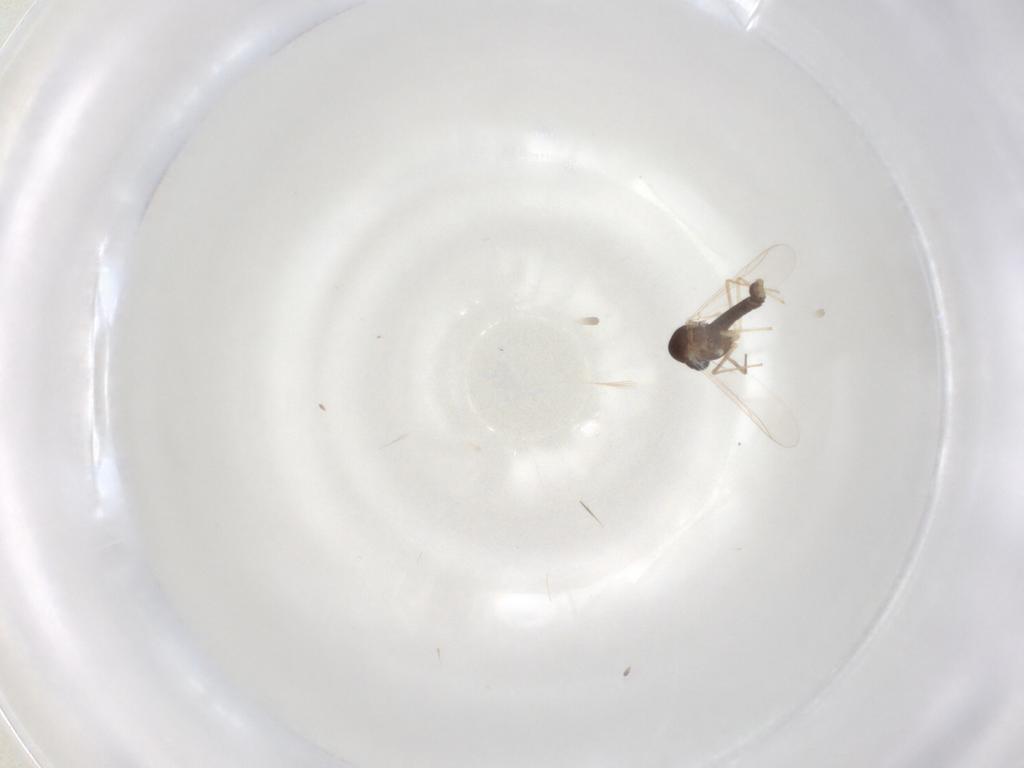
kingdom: Animalia
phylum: Arthropoda
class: Insecta
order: Diptera
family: Chironomidae
